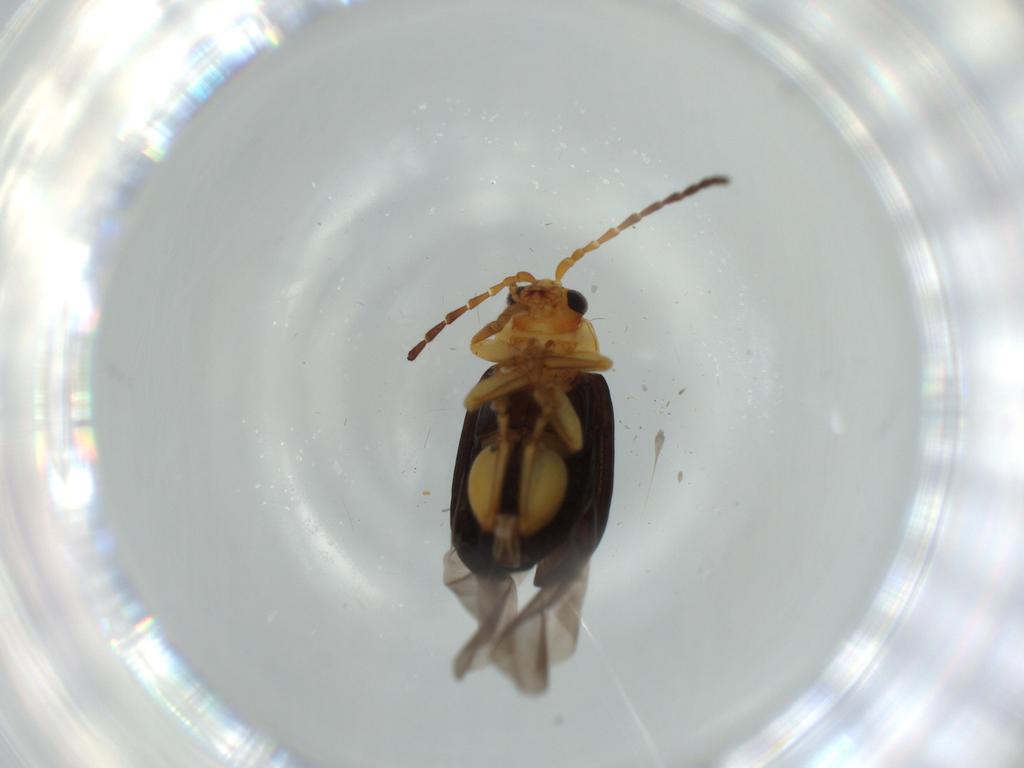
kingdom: Animalia
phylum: Arthropoda
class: Insecta
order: Coleoptera
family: Chrysomelidae
